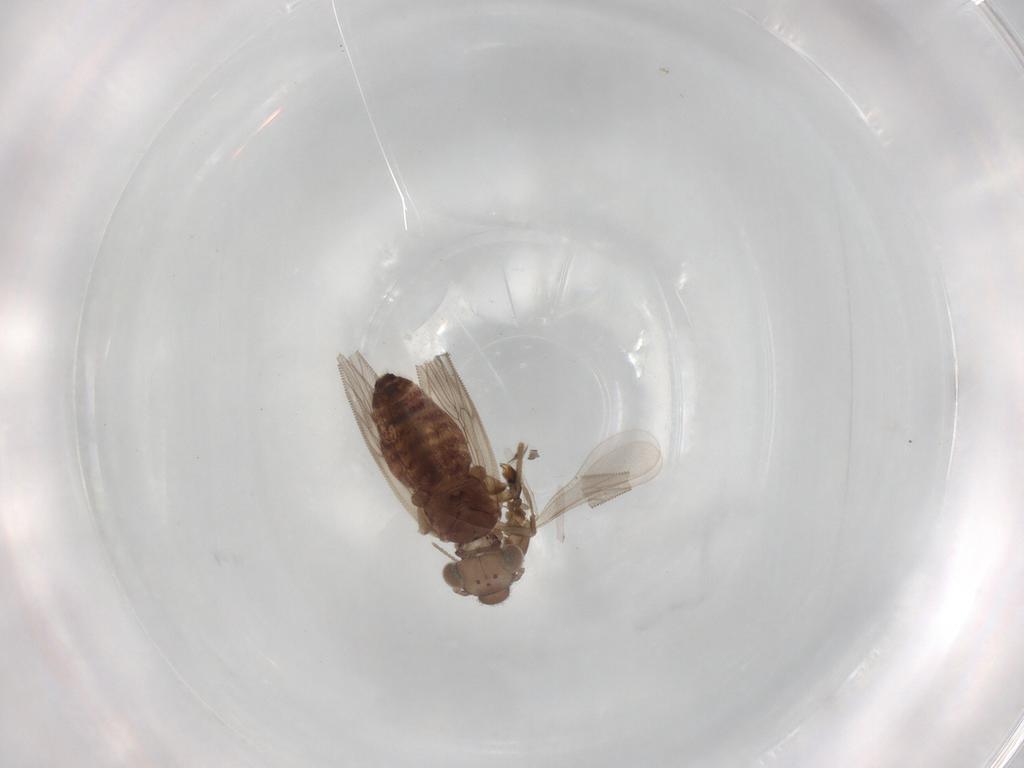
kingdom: Animalia
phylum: Arthropoda
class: Insecta
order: Psocodea
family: Lepidopsocidae
